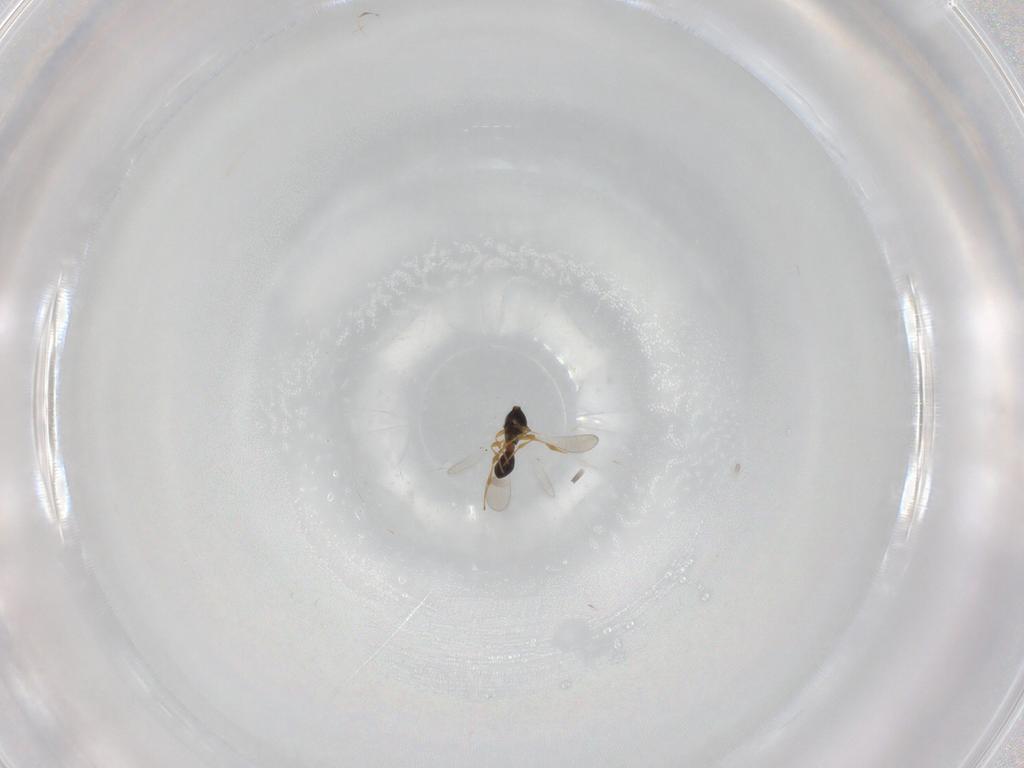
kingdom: Animalia
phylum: Arthropoda
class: Insecta
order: Hymenoptera
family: Platygastridae
